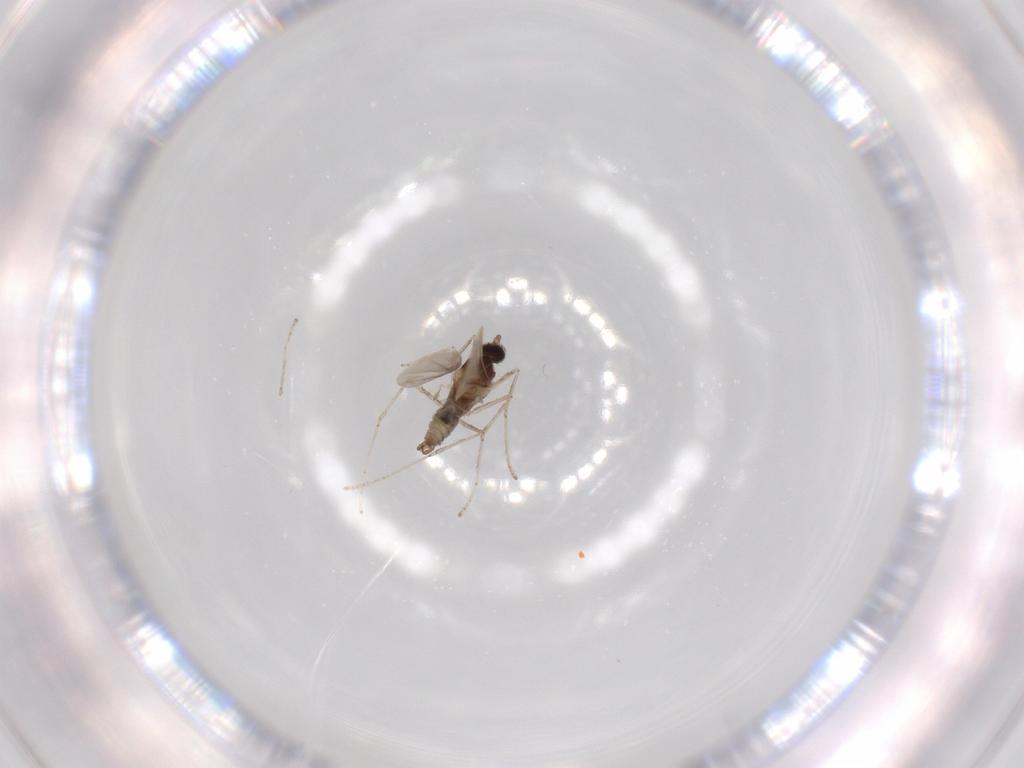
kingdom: Animalia
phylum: Arthropoda
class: Insecta
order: Diptera
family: Cecidomyiidae
